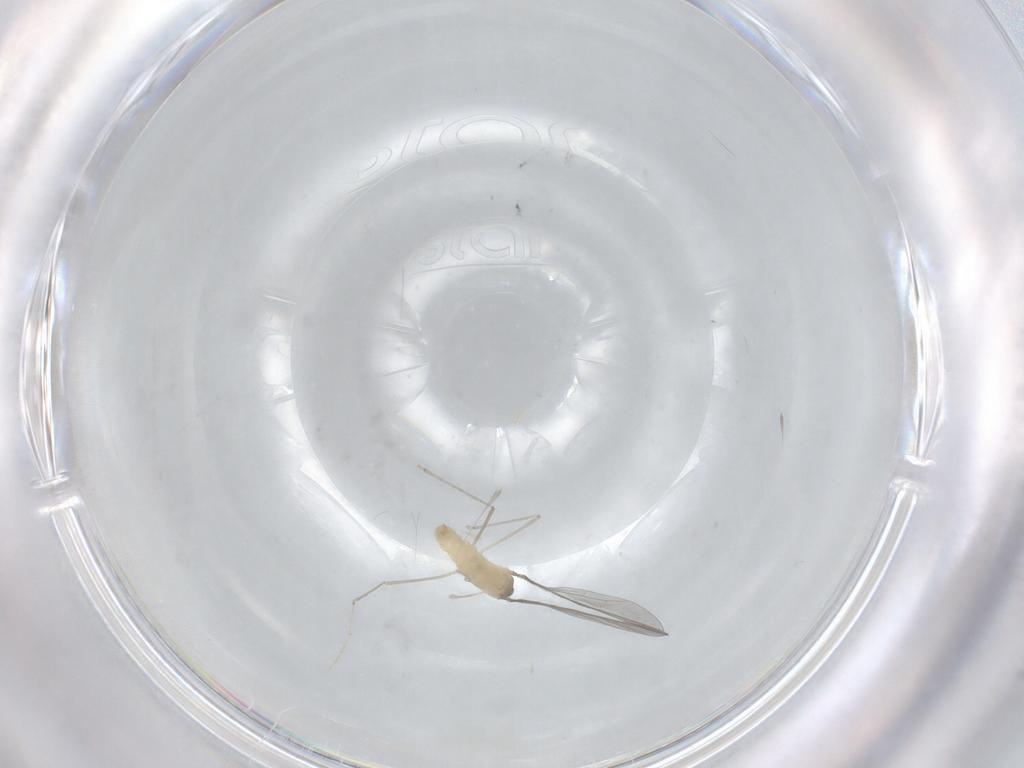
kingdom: Animalia
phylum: Arthropoda
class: Insecta
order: Diptera
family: Cecidomyiidae
